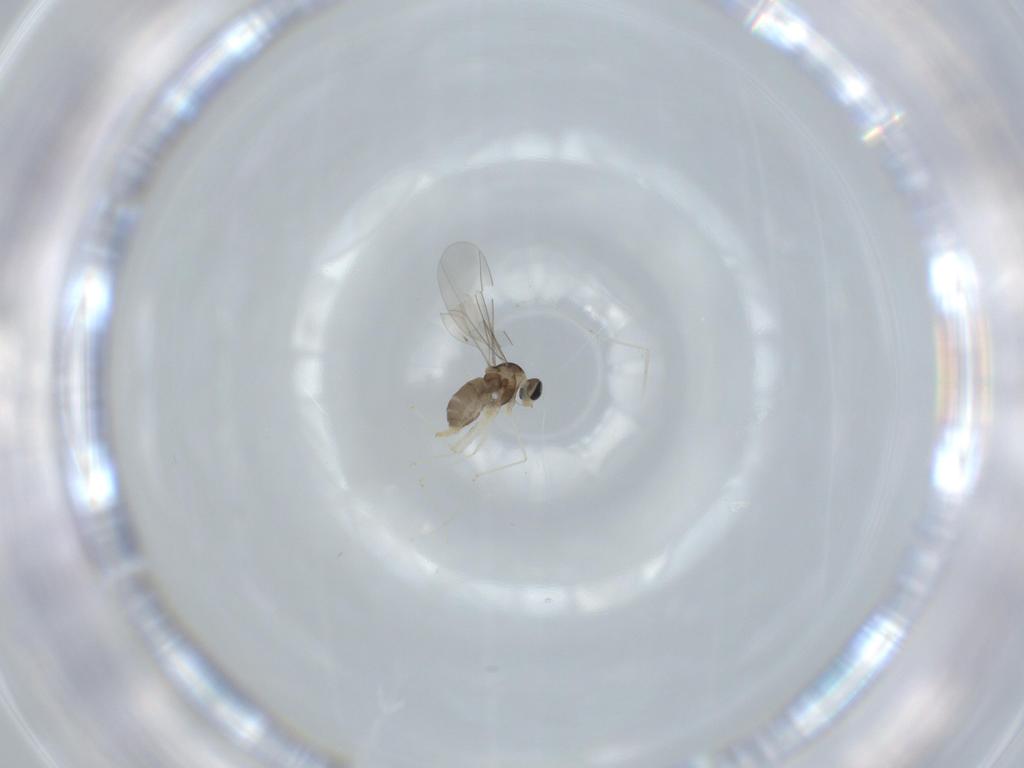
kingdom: Animalia
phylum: Arthropoda
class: Insecta
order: Diptera
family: Cecidomyiidae
